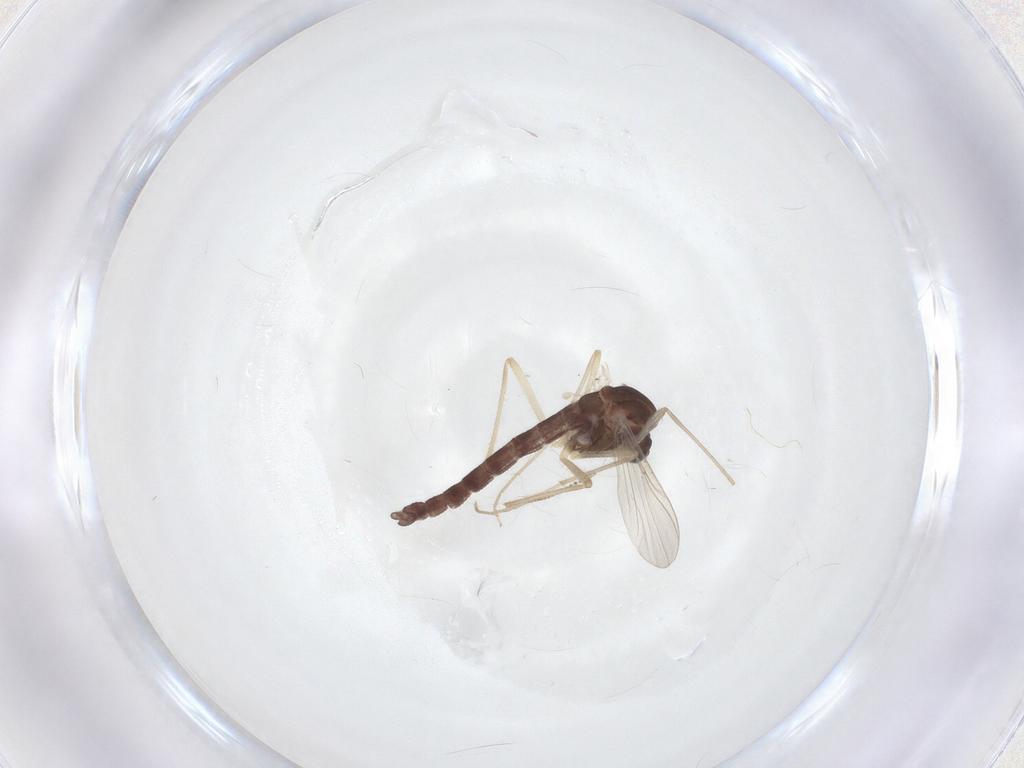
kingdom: Animalia
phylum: Arthropoda
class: Insecta
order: Diptera
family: Chironomidae
